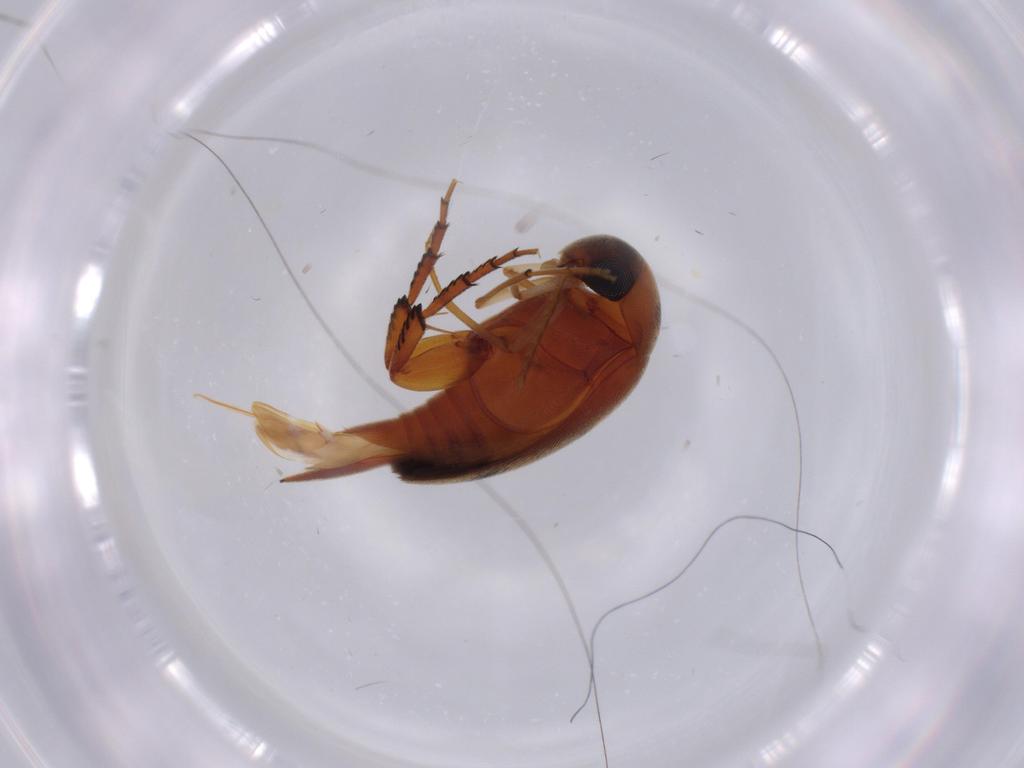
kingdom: Animalia
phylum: Arthropoda
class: Insecta
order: Coleoptera
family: Mordellidae
